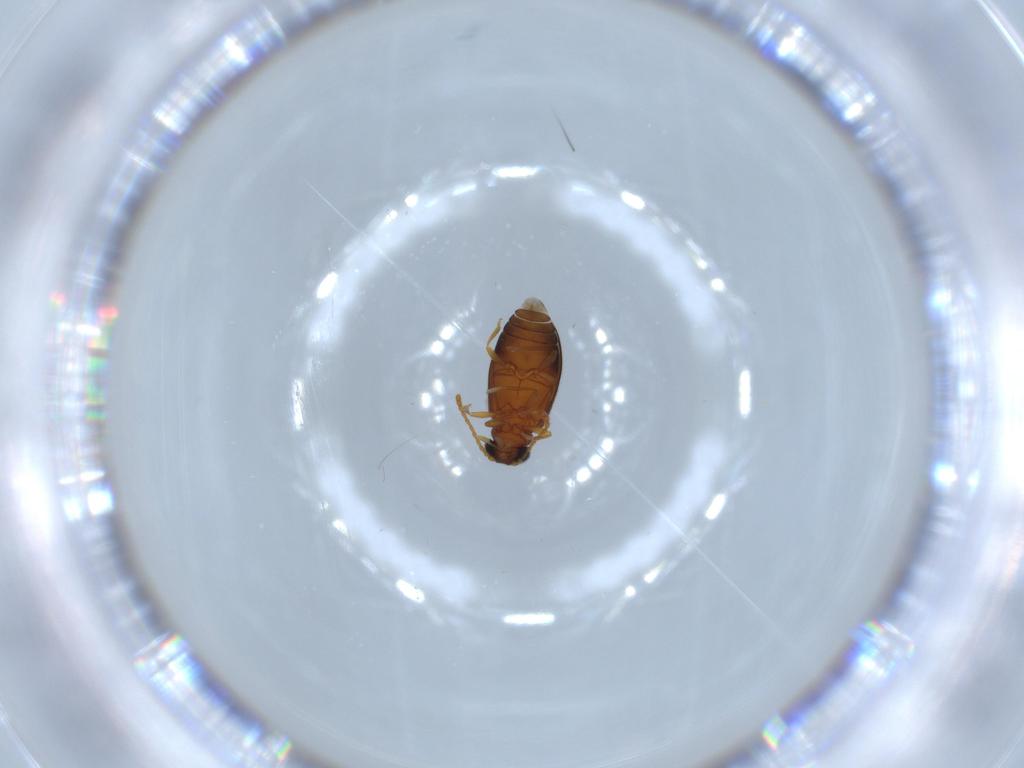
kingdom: Animalia
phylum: Arthropoda
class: Insecta
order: Coleoptera
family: Aderidae
